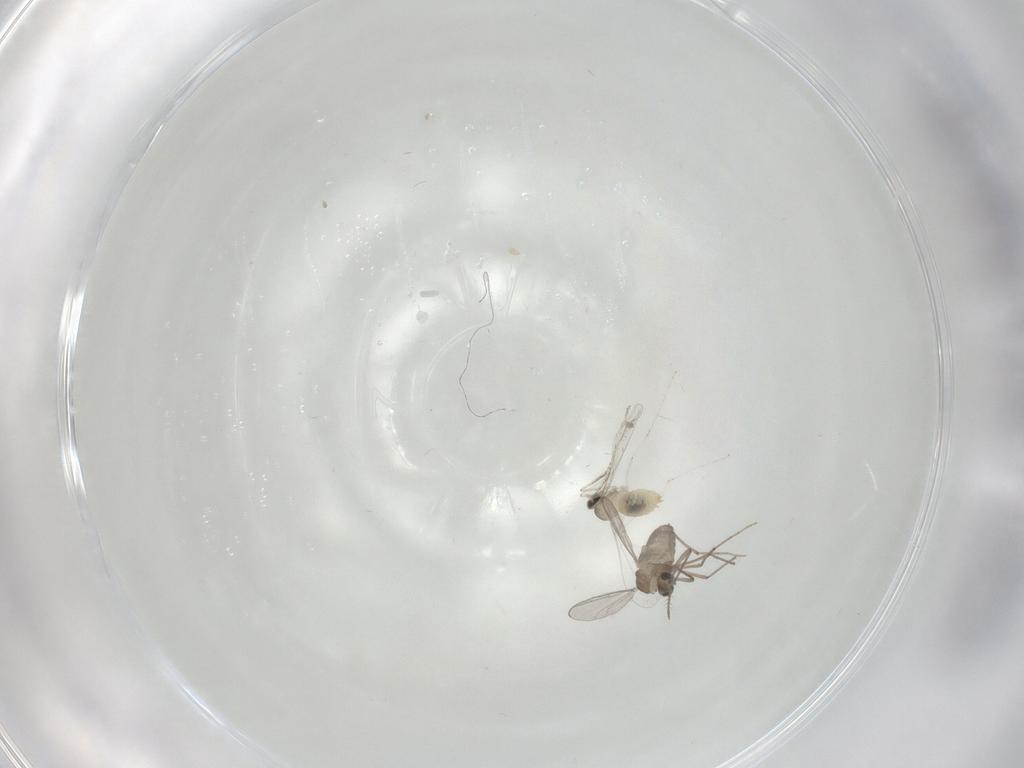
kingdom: Animalia
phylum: Arthropoda
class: Insecta
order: Diptera
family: Chironomidae
